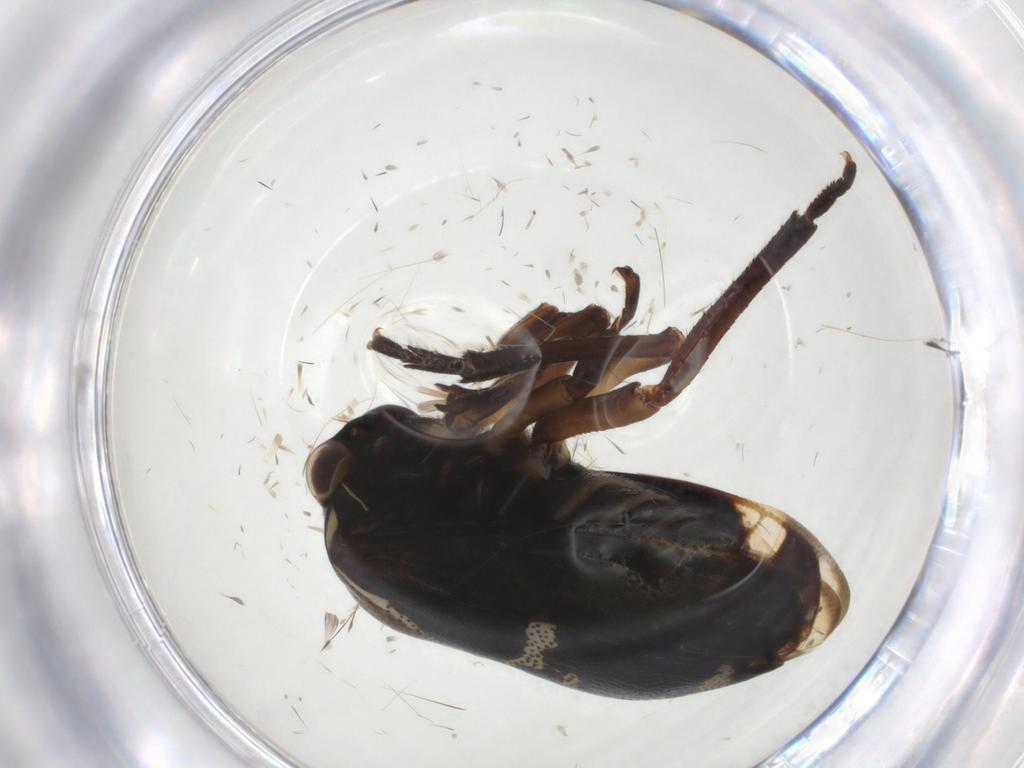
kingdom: Animalia
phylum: Arthropoda
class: Insecta
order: Hemiptera
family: Membracidae
